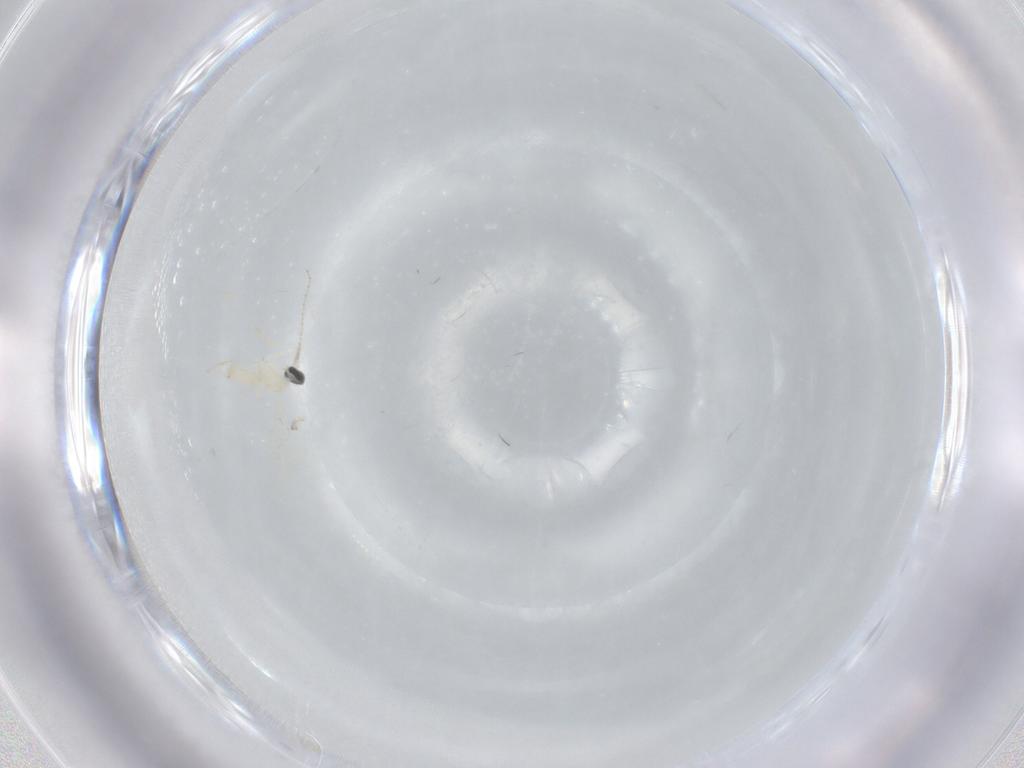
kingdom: Animalia
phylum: Arthropoda
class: Insecta
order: Diptera
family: Cecidomyiidae
